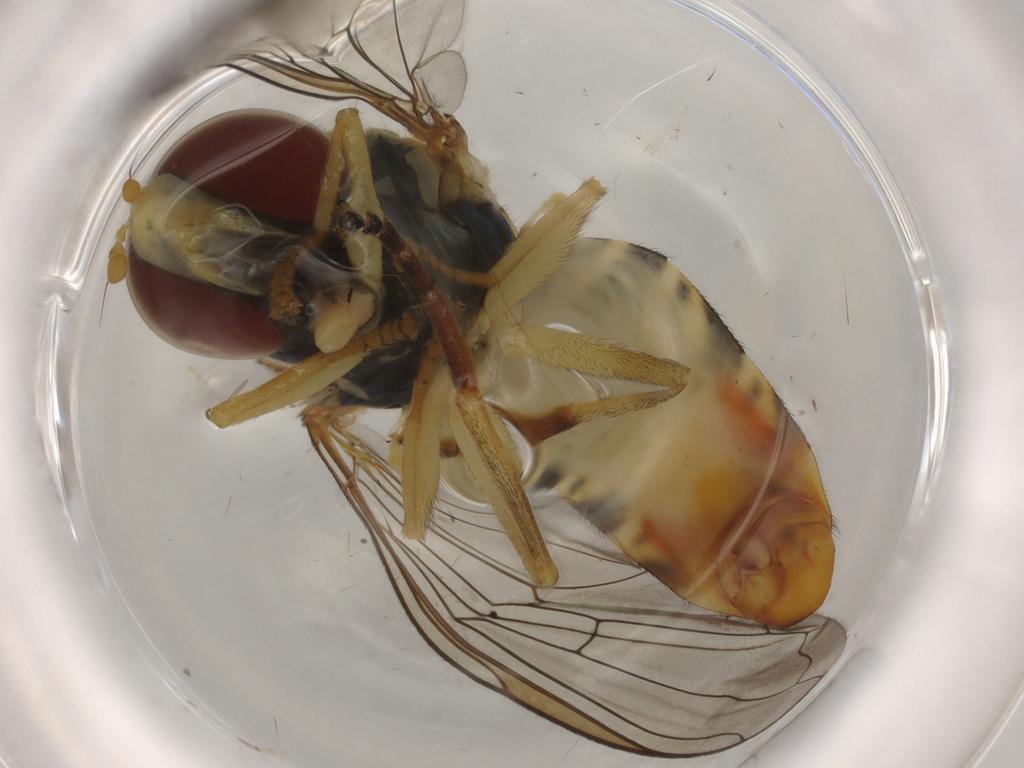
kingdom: Animalia
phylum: Arthropoda
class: Insecta
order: Diptera
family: Syrphidae
